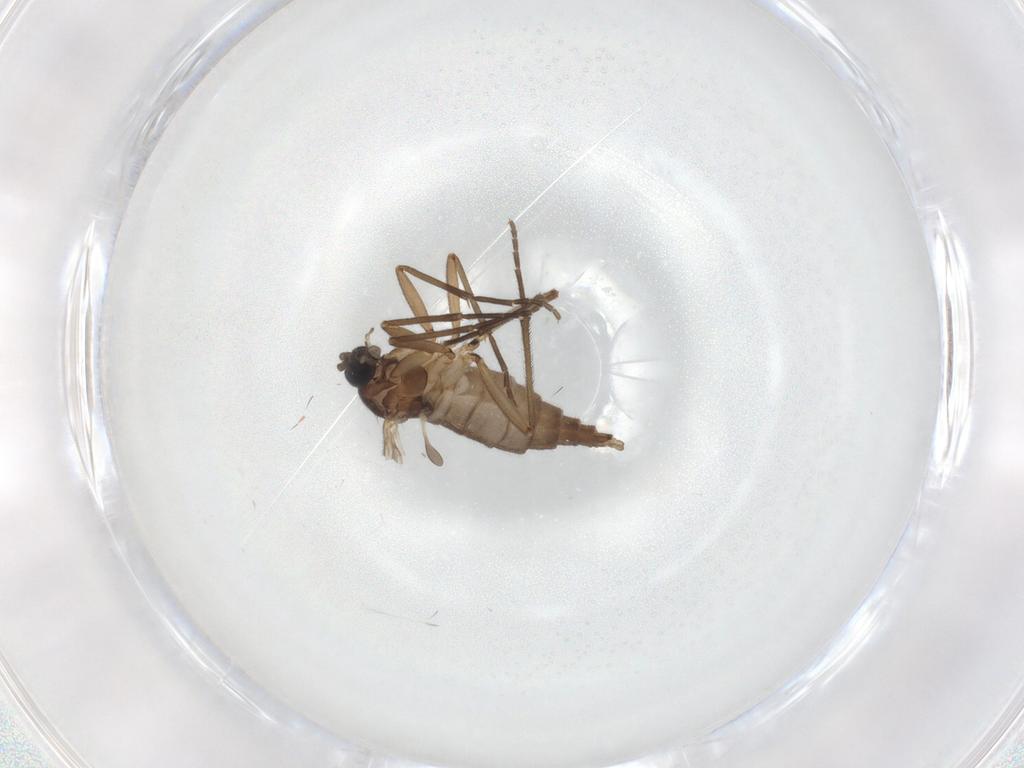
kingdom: Animalia
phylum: Arthropoda
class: Insecta
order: Diptera
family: Sciaridae
